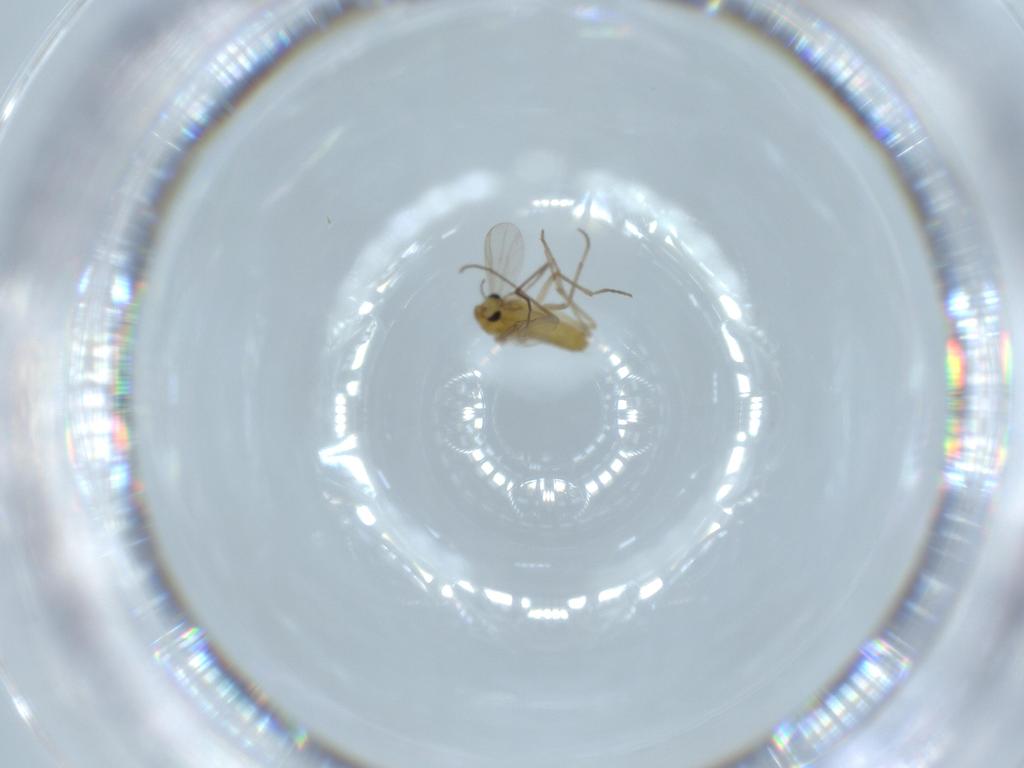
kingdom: Animalia
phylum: Arthropoda
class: Insecta
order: Diptera
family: Chironomidae
